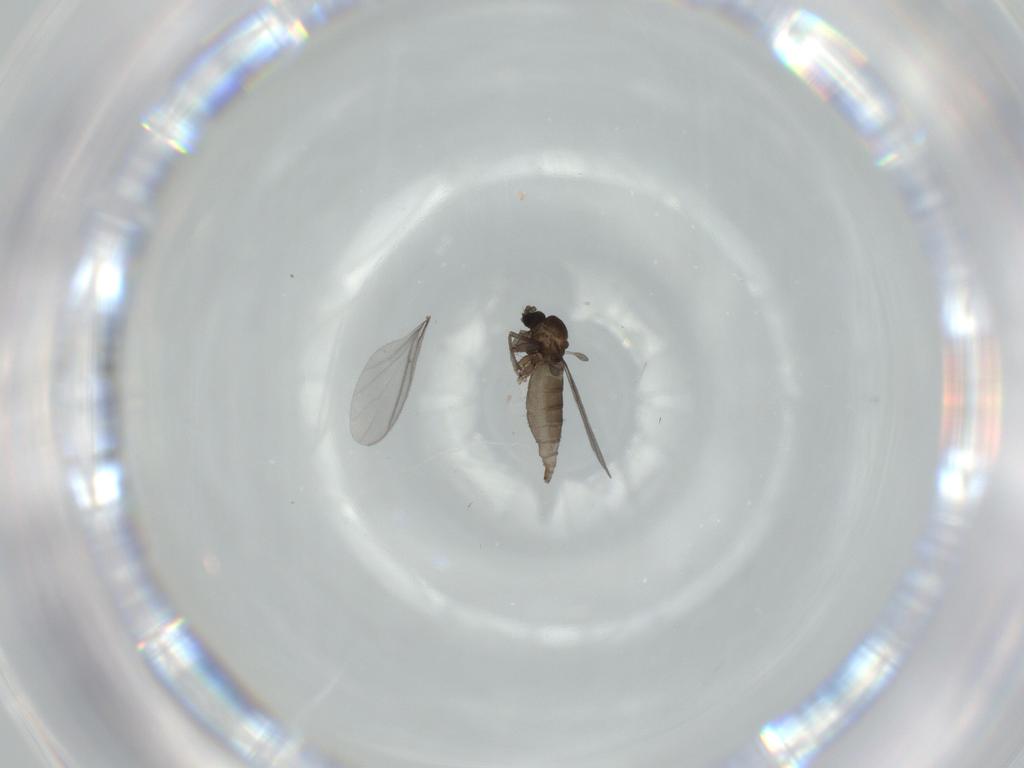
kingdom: Animalia
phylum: Arthropoda
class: Insecta
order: Diptera
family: Sciaridae
